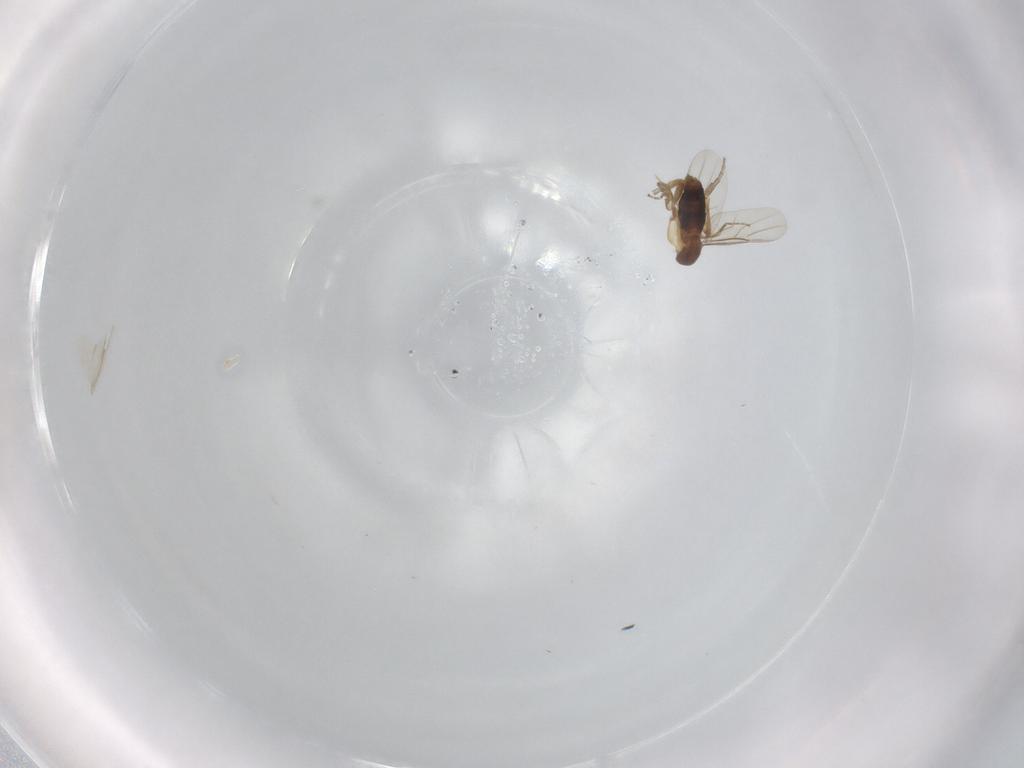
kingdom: Animalia
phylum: Arthropoda
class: Insecta
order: Diptera
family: Phoridae
